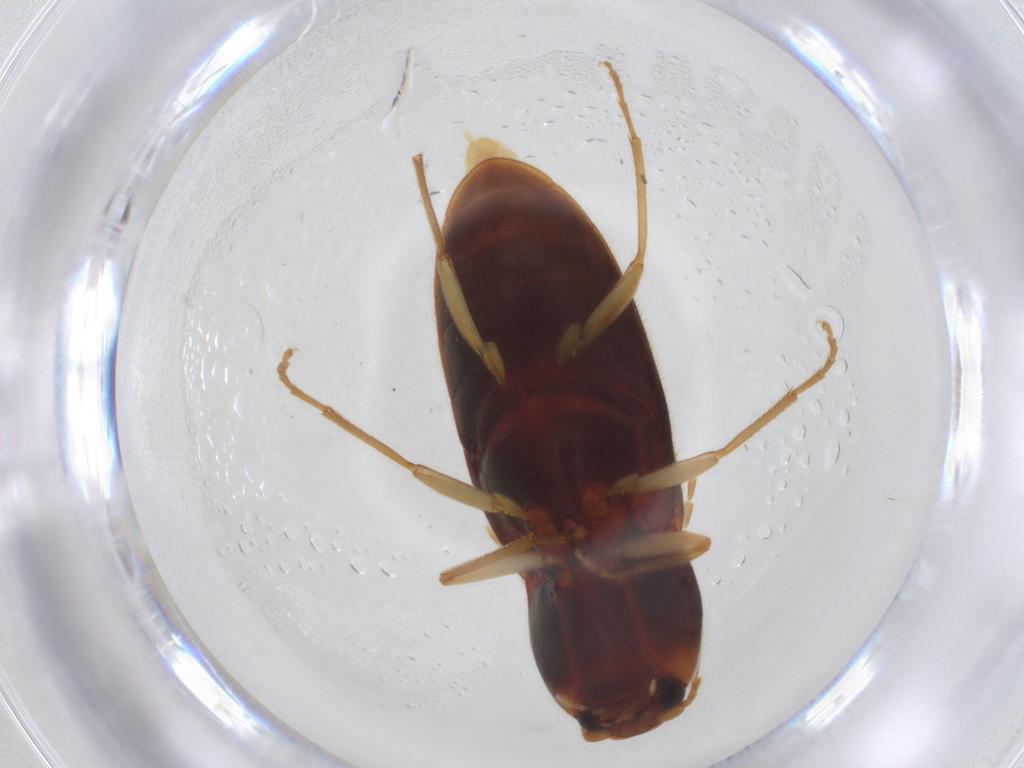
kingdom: Animalia
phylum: Arthropoda
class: Insecta
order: Coleoptera
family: Elateridae
